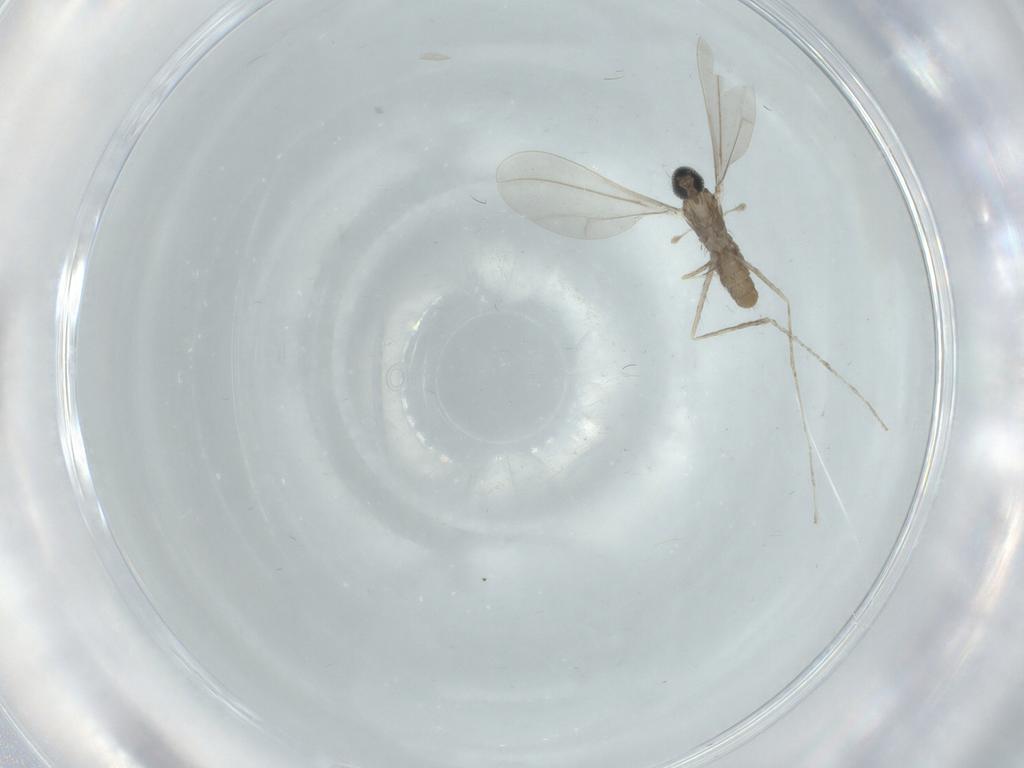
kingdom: Animalia
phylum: Arthropoda
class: Insecta
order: Diptera
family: Cecidomyiidae
